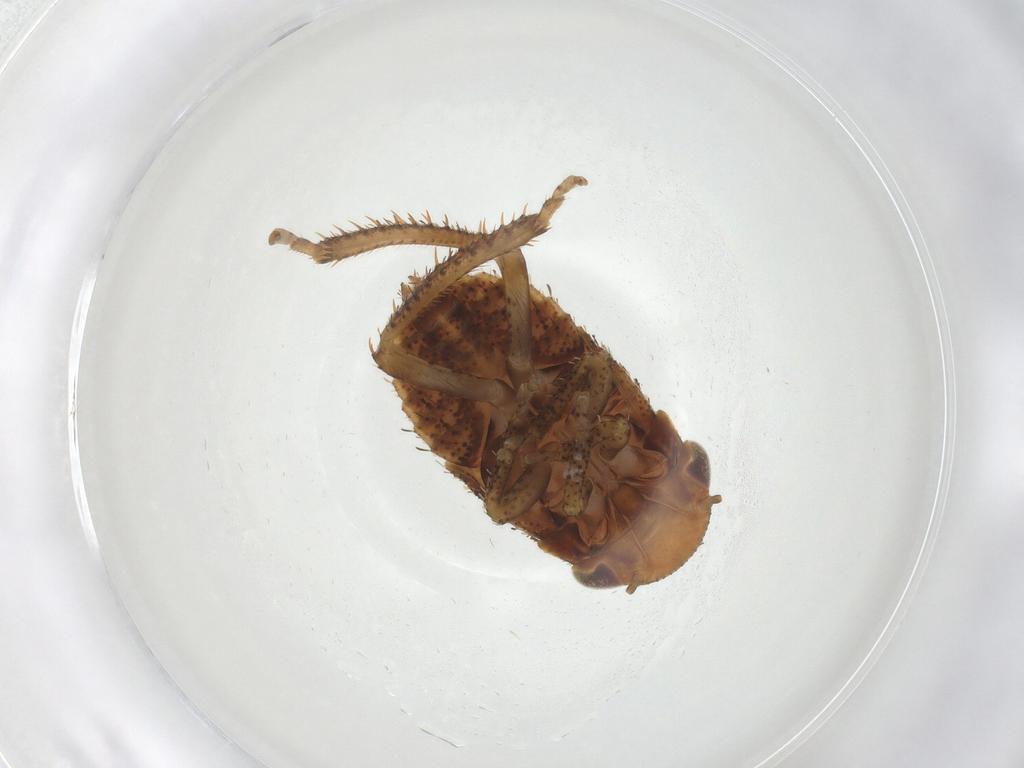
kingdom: Animalia
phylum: Arthropoda
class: Insecta
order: Hemiptera
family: Cicadellidae
